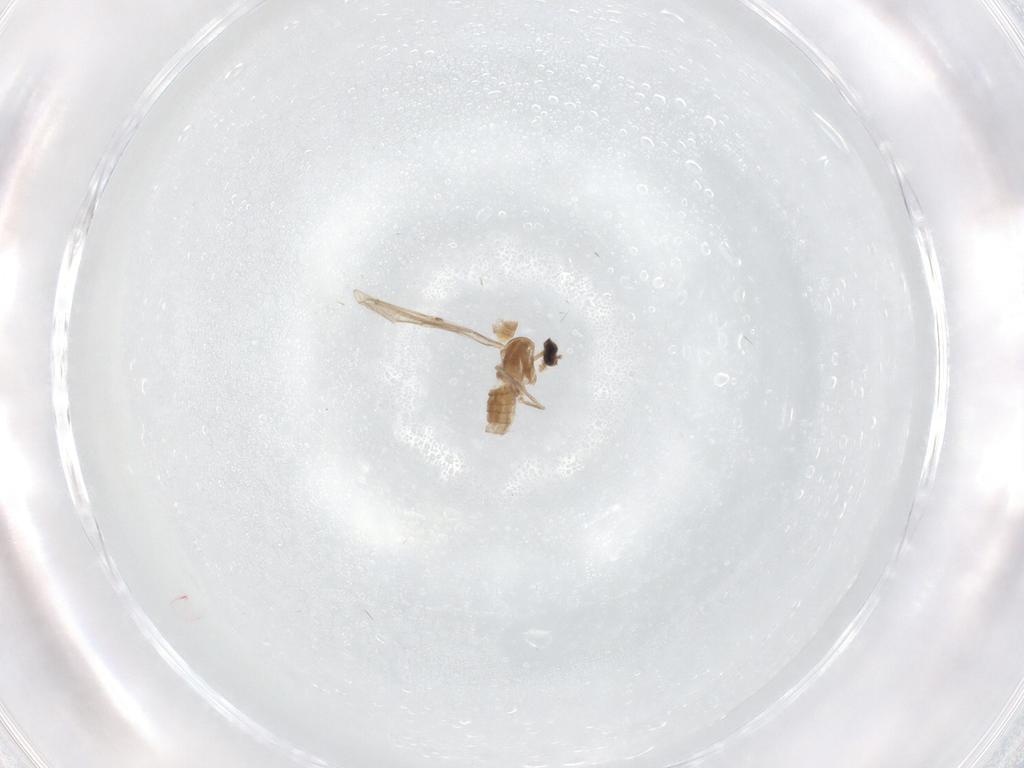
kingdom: Animalia
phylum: Arthropoda
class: Insecta
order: Diptera
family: Cecidomyiidae
